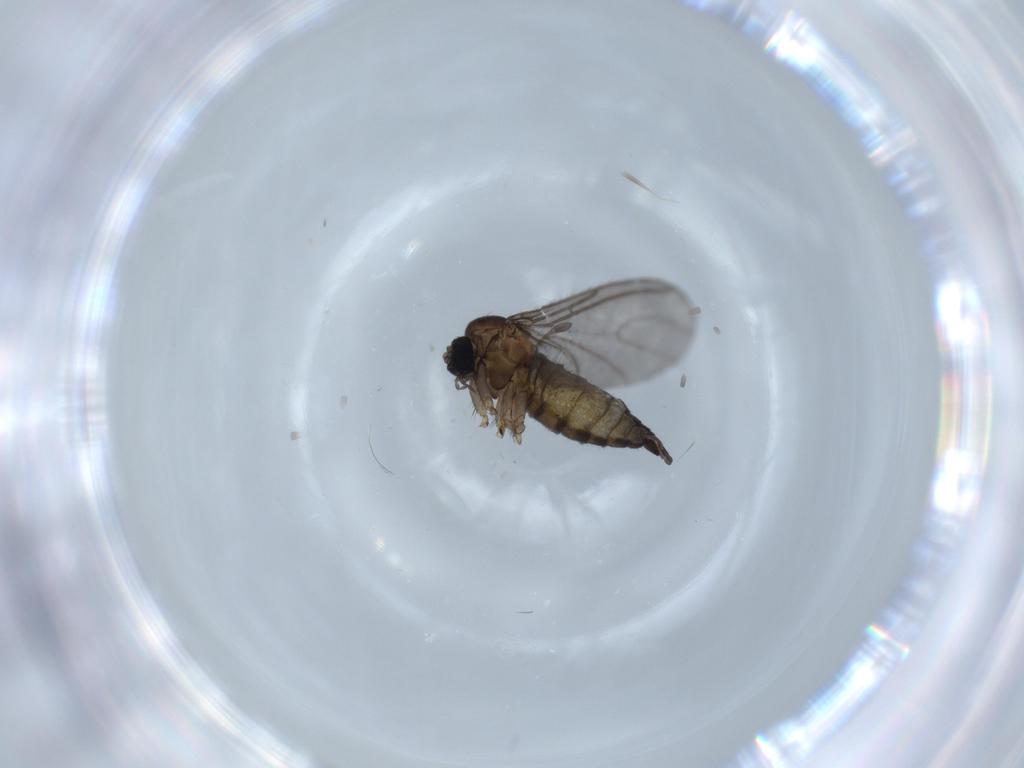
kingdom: Animalia
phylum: Arthropoda
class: Insecta
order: Diptera
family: Sciaridae
